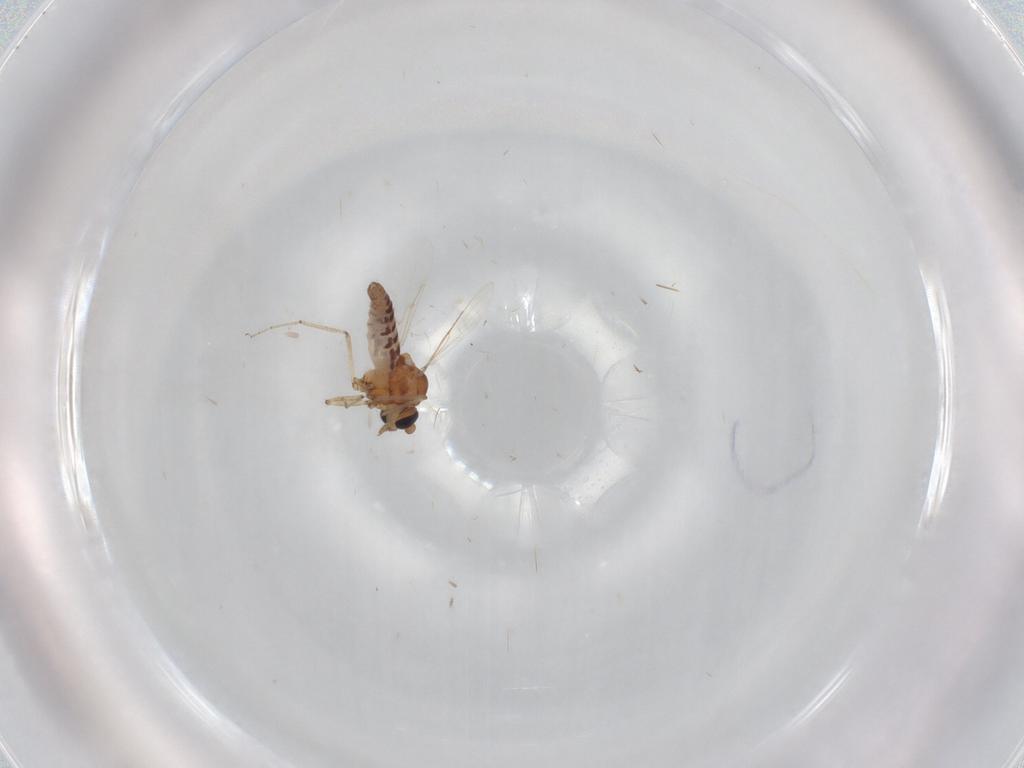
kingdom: Animalia
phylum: Arthropoda
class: Insecta
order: Diptera
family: Ceratopogonidae
